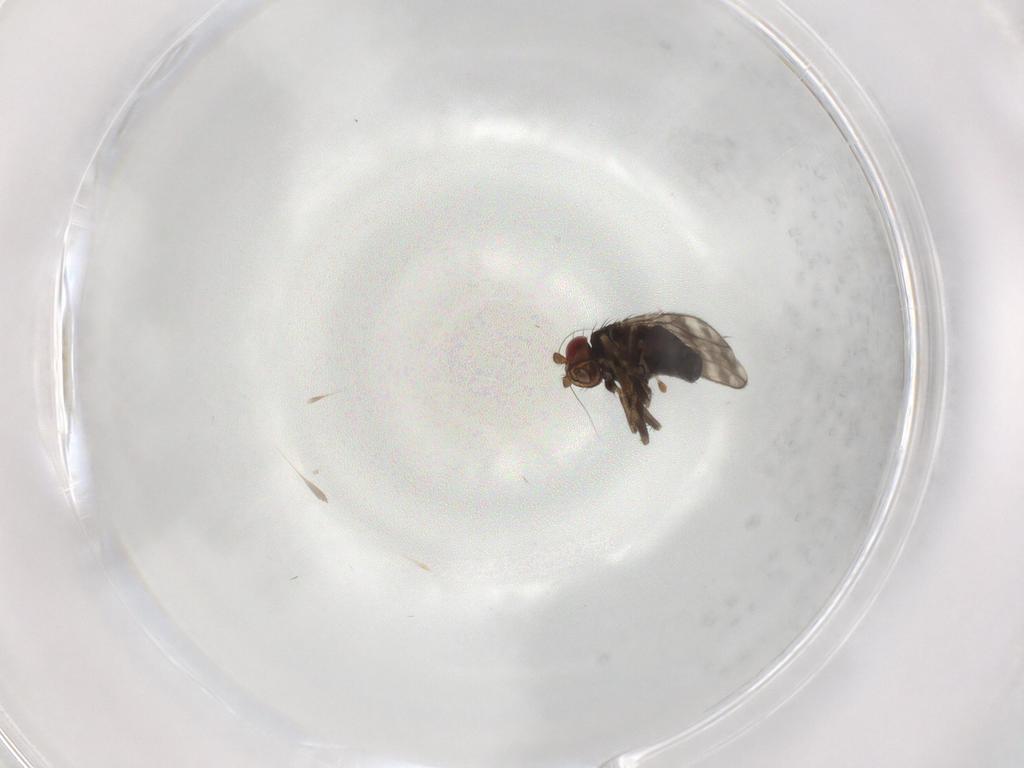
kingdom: Animalia
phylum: Arthropoda
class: Insecta
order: Diptera
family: Sphaeroceridae
